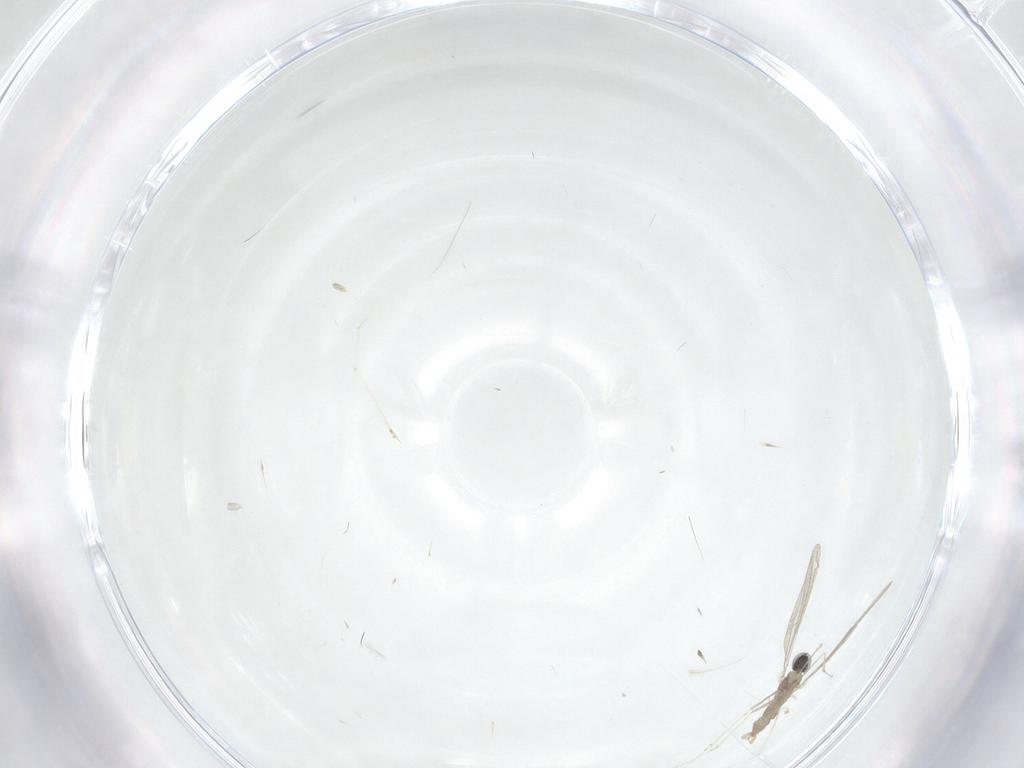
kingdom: Animalia
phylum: Arthropoda
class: Insecta
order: Diptera
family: Cecidomyiidae
